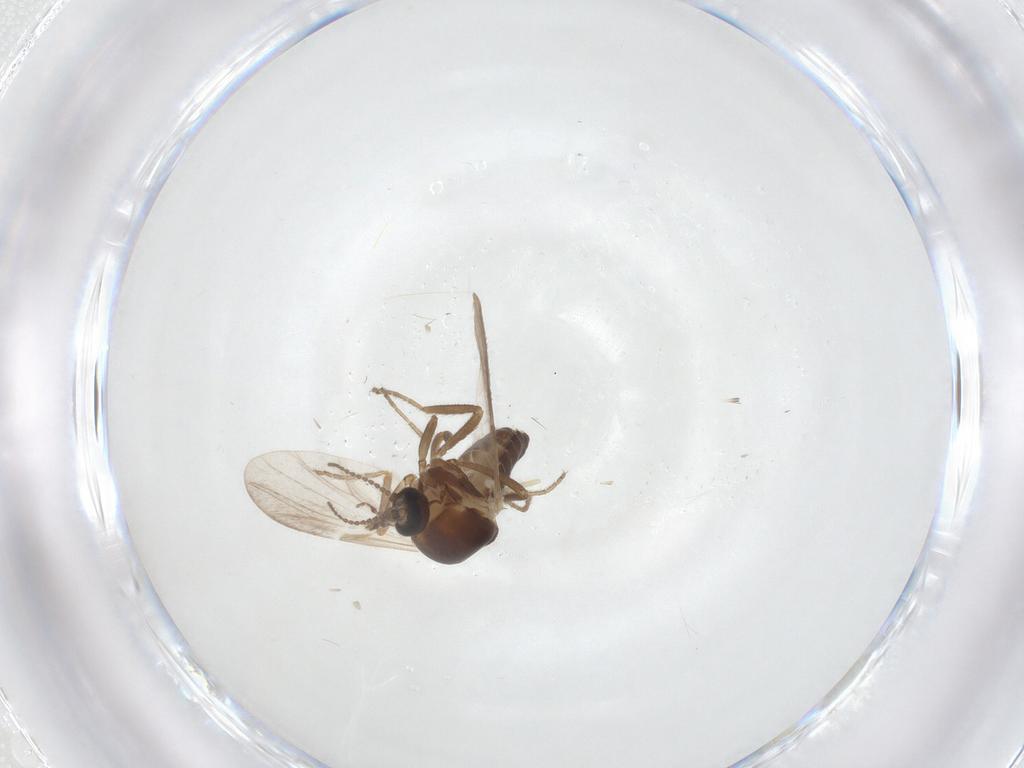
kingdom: Animalia
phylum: Arthropoda
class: Insecta
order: Diptera
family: Ceratopogonidae
